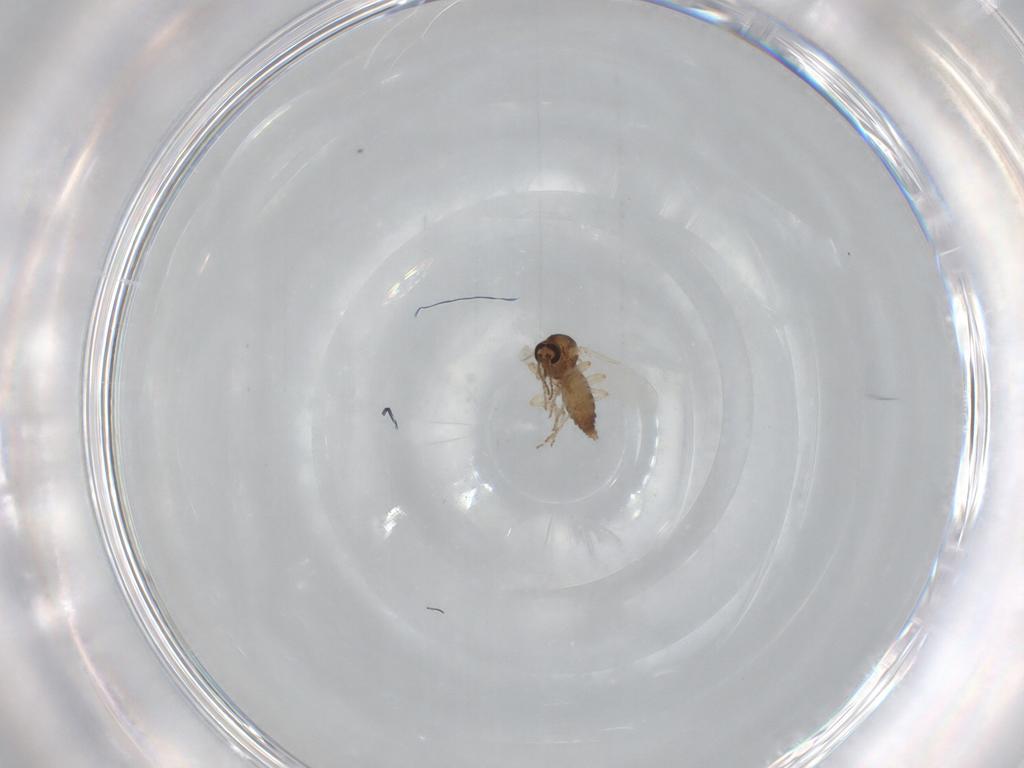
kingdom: Animalia
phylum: Arthropoda
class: Insecta
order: Diptera
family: Ceratopogonidae
